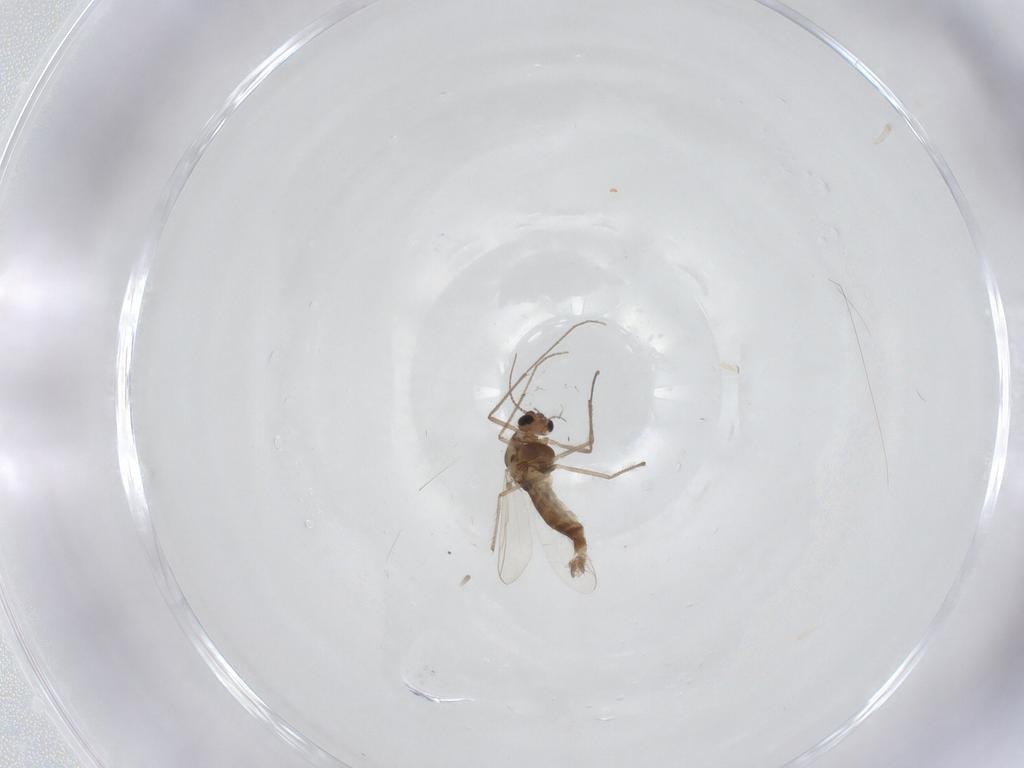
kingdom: Animalia
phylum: Arthropoda
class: Insecta
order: Diptera
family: Chironomidae
